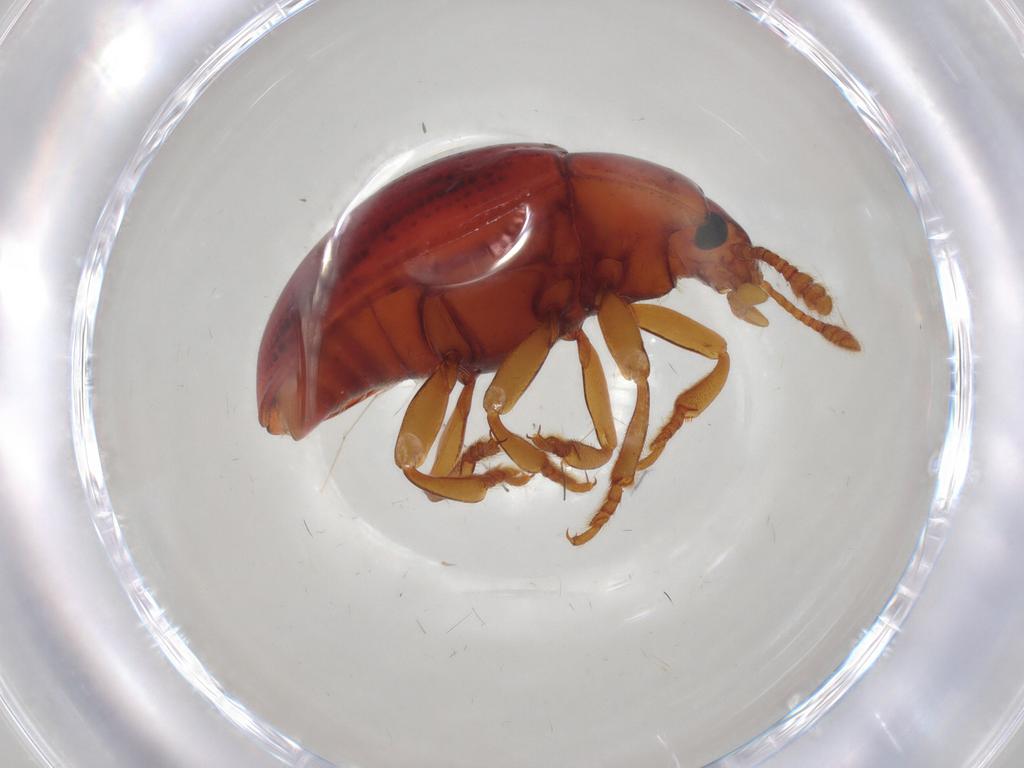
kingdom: Animalia
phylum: Arthropoda
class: Insecta
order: Coleoptera
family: Erotylidae
